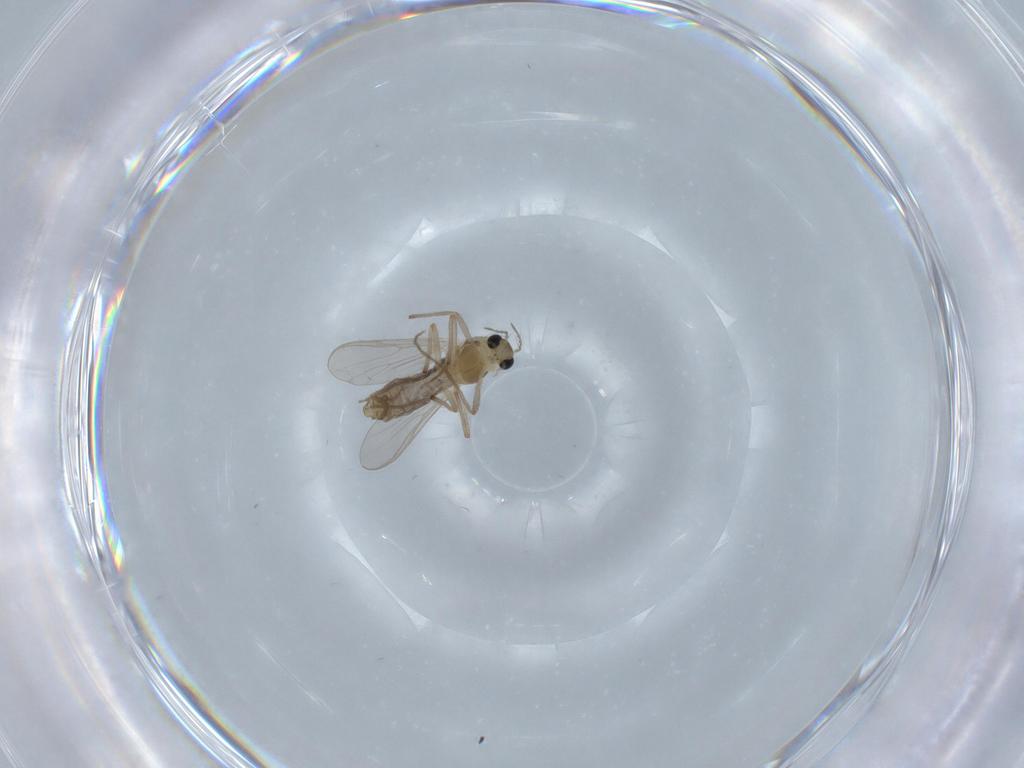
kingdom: Animalia
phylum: Arthropoda
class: Insecta
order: Diptera
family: Chironomidae
